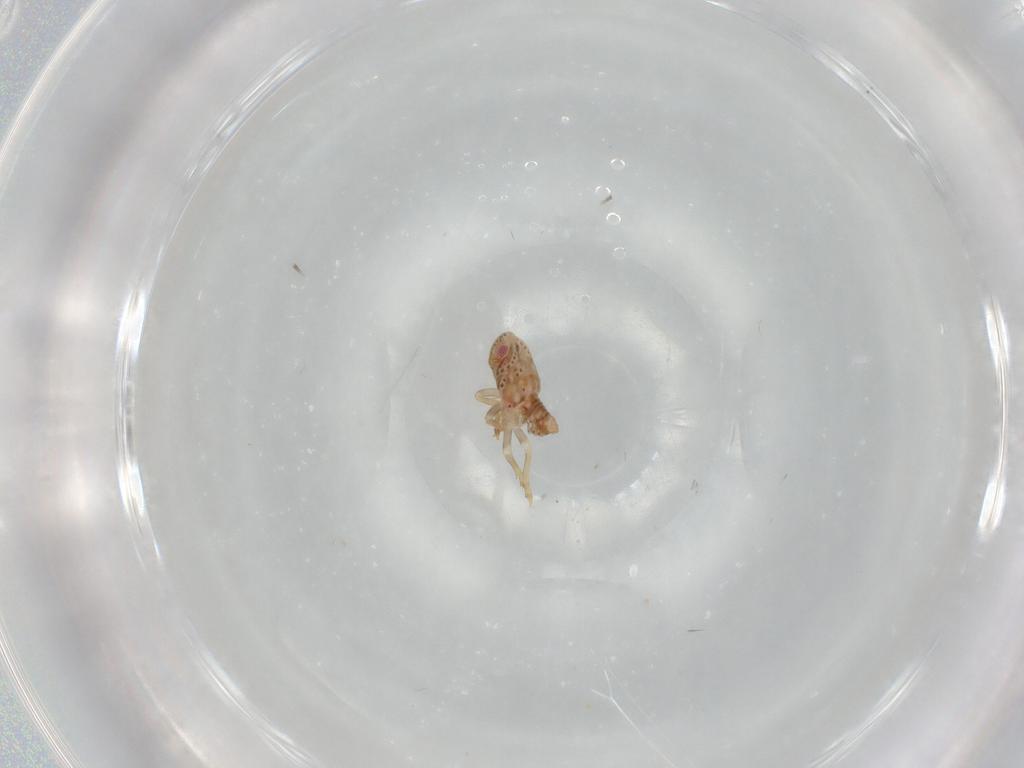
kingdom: Animalia
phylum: Arthropoda
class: Insecta
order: Hemiptera
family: Flatidae
